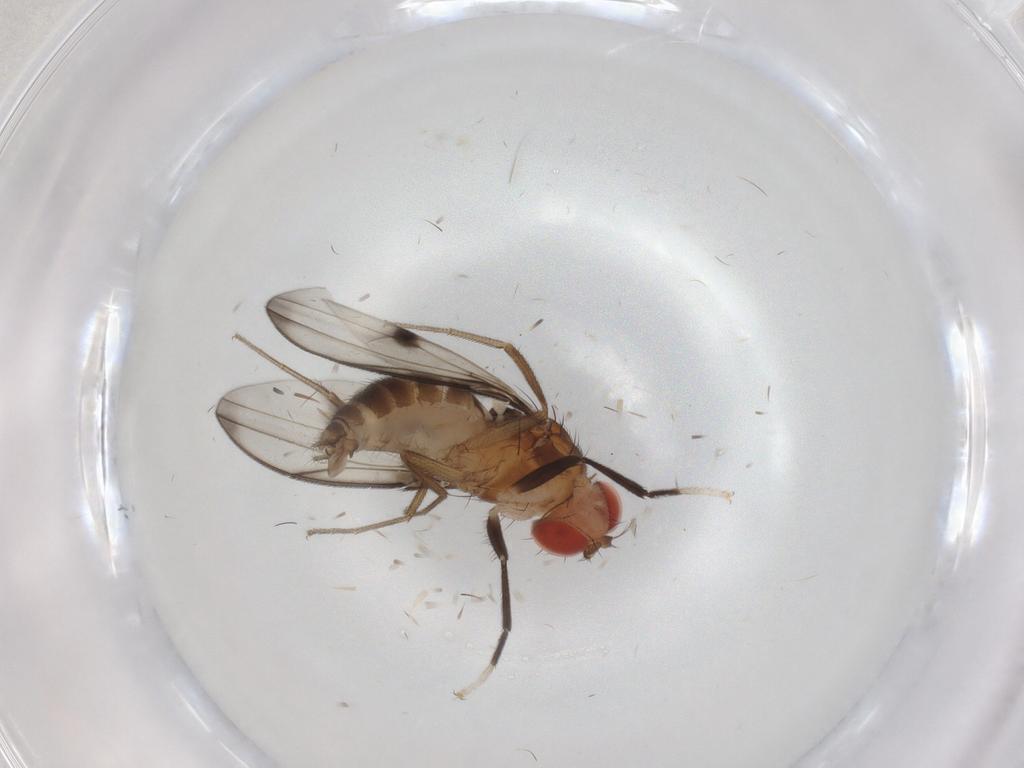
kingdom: Animalia
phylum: Arthropoda
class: Insecta
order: Diptera
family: Drosophilidae
